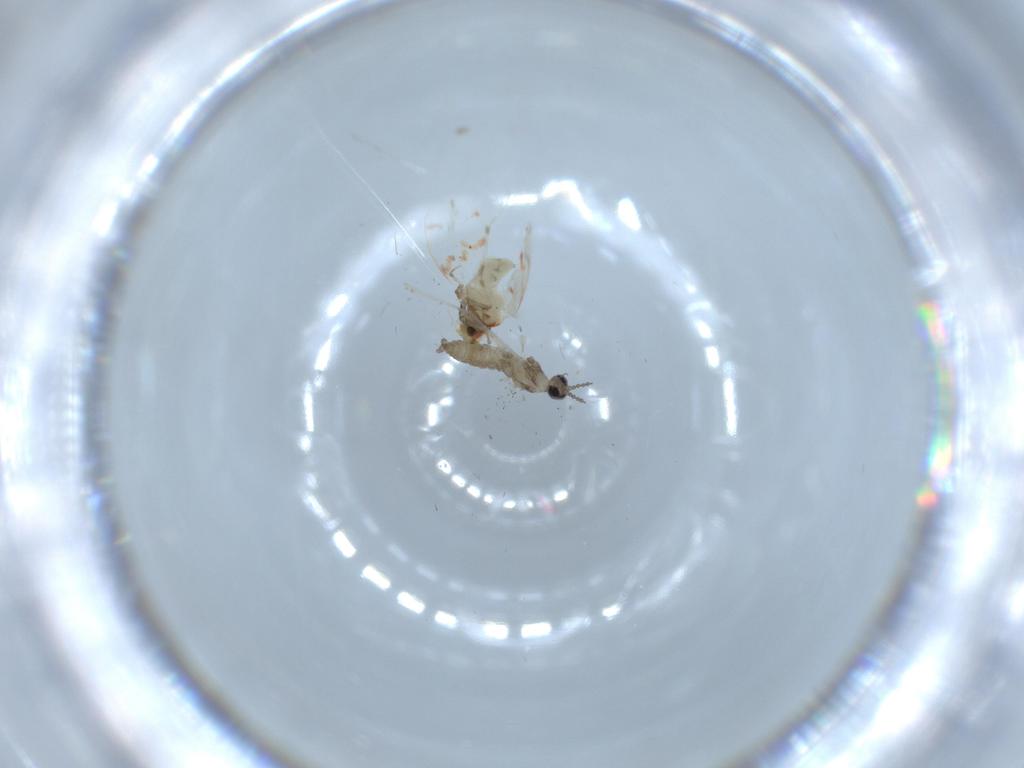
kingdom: Animalia
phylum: Arthropoda
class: Insecta
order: Diptera
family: Cecidomyiidae
